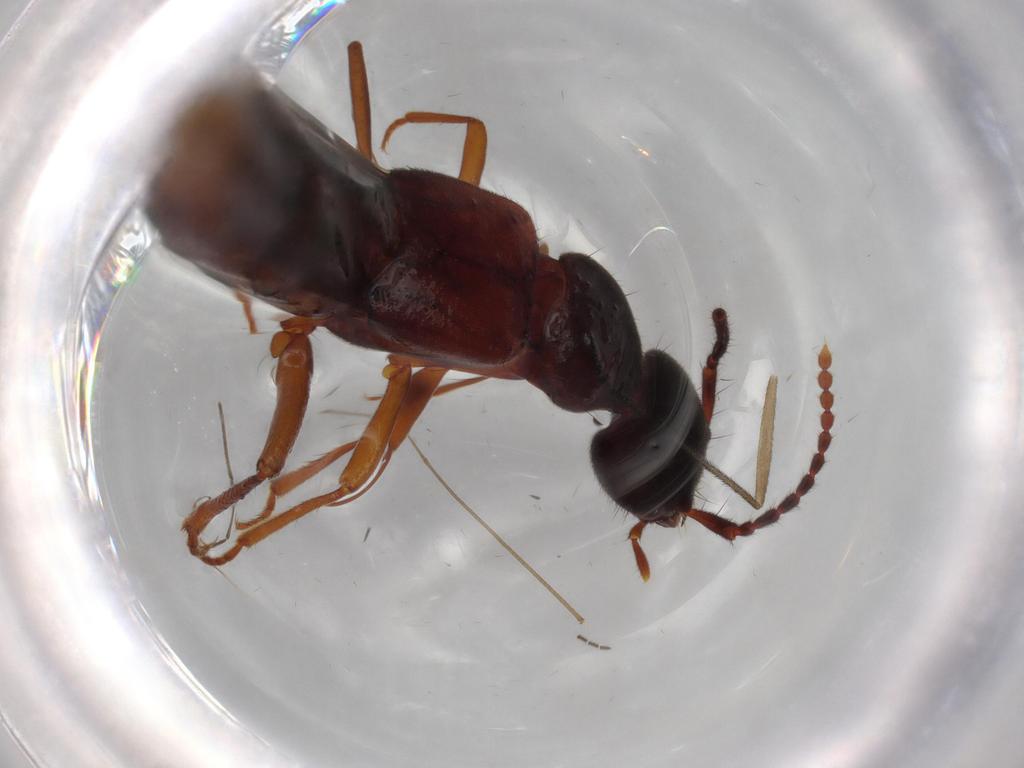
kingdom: Animalia
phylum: Arthropoda
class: Insecta
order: Coleoptera
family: Staphylinidae
